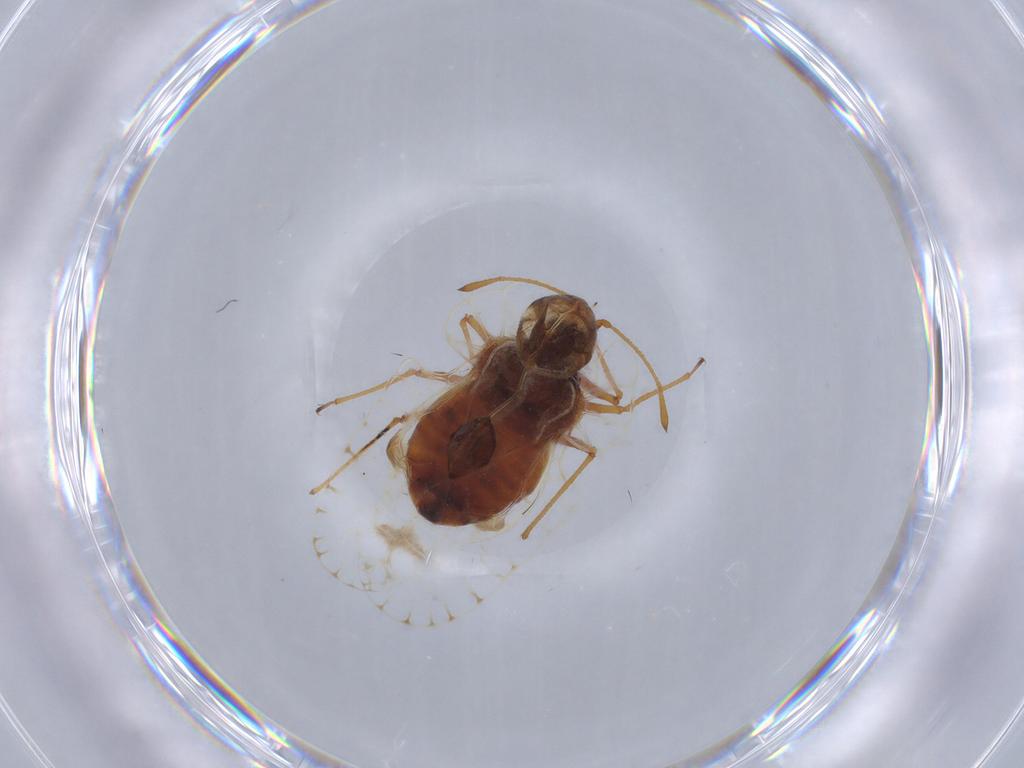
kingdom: Animalia
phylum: Arthropoda
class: Insecta
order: Hemiptera
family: Tingidae
